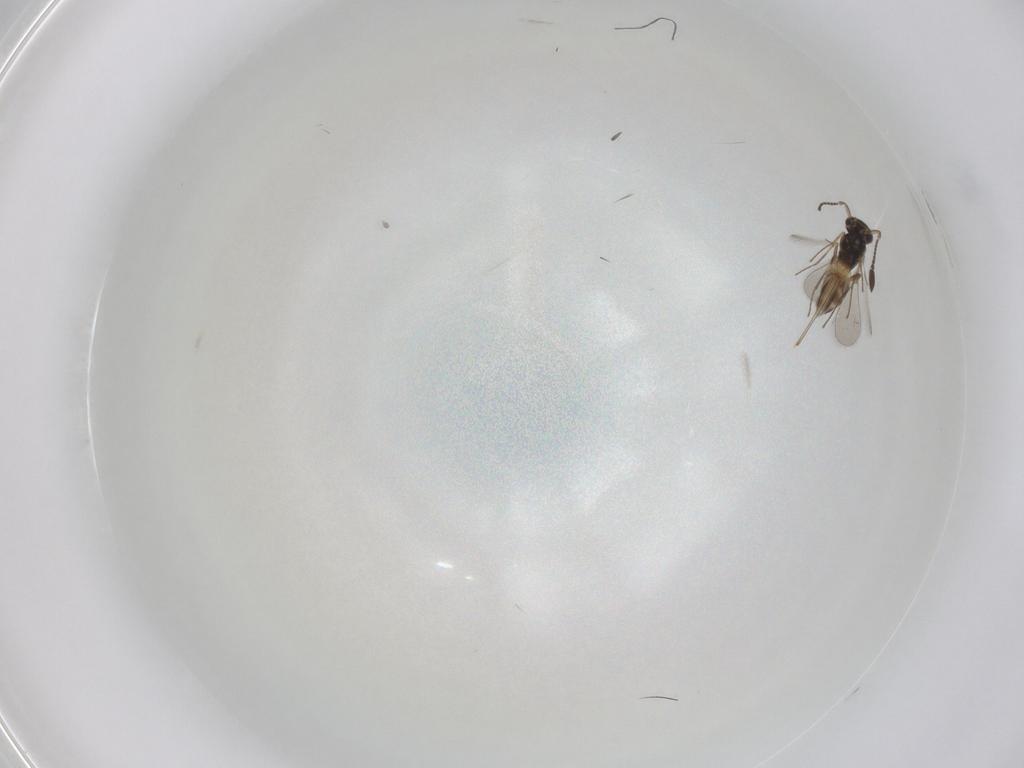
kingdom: Animalia
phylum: Arthropoda
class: Insecta
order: Hymenoptera
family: Mymaridae
